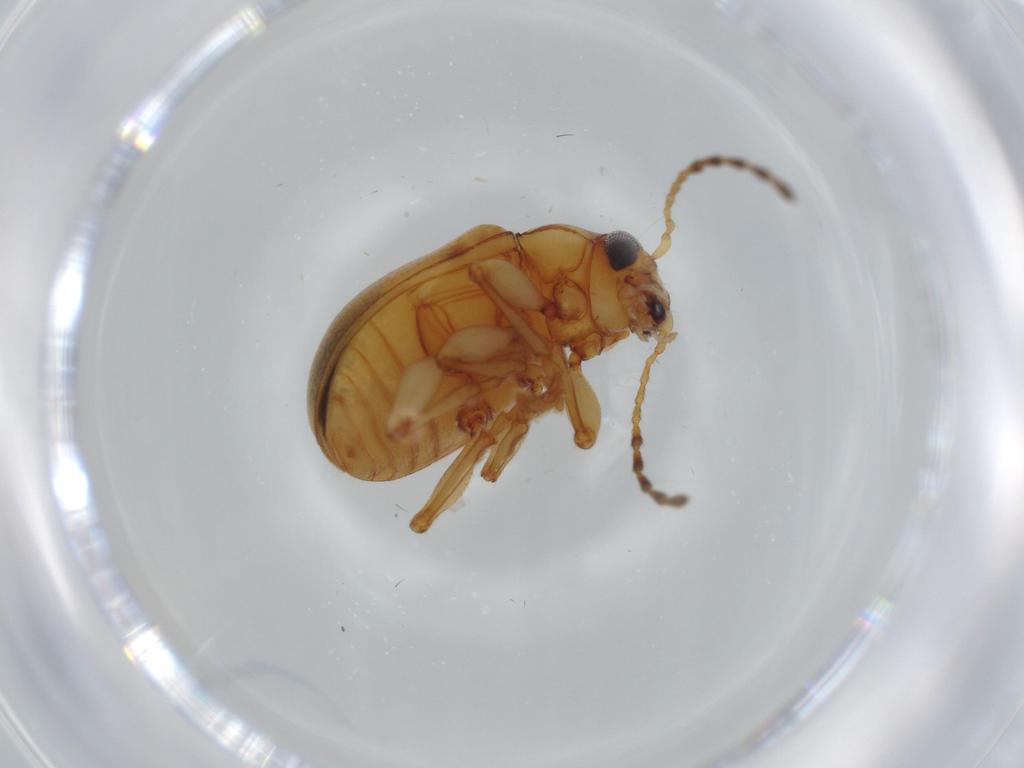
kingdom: Animalia
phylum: Arthropoda
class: Insecta
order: Coleoptera
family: Chrysomelidae
